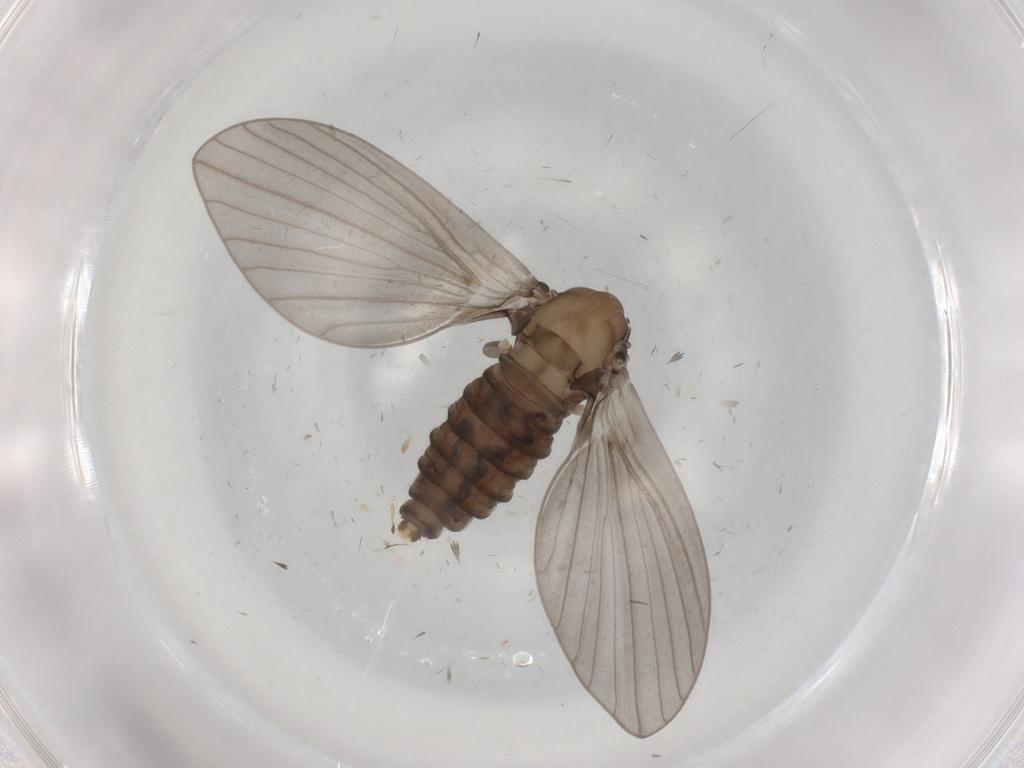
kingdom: Animalia
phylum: Arthropoda
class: Insecta
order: Diptera
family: Psychodidae
